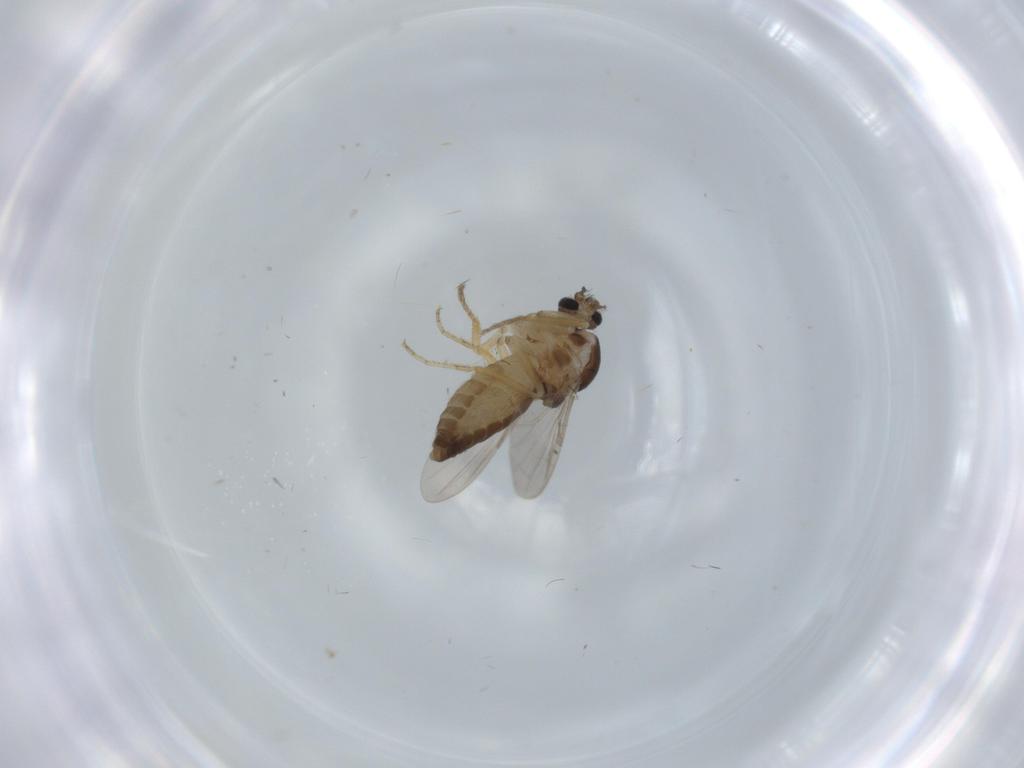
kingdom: Animalia
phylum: Arthropoda
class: Insecta
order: Diptera
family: Ceratopogonidae
